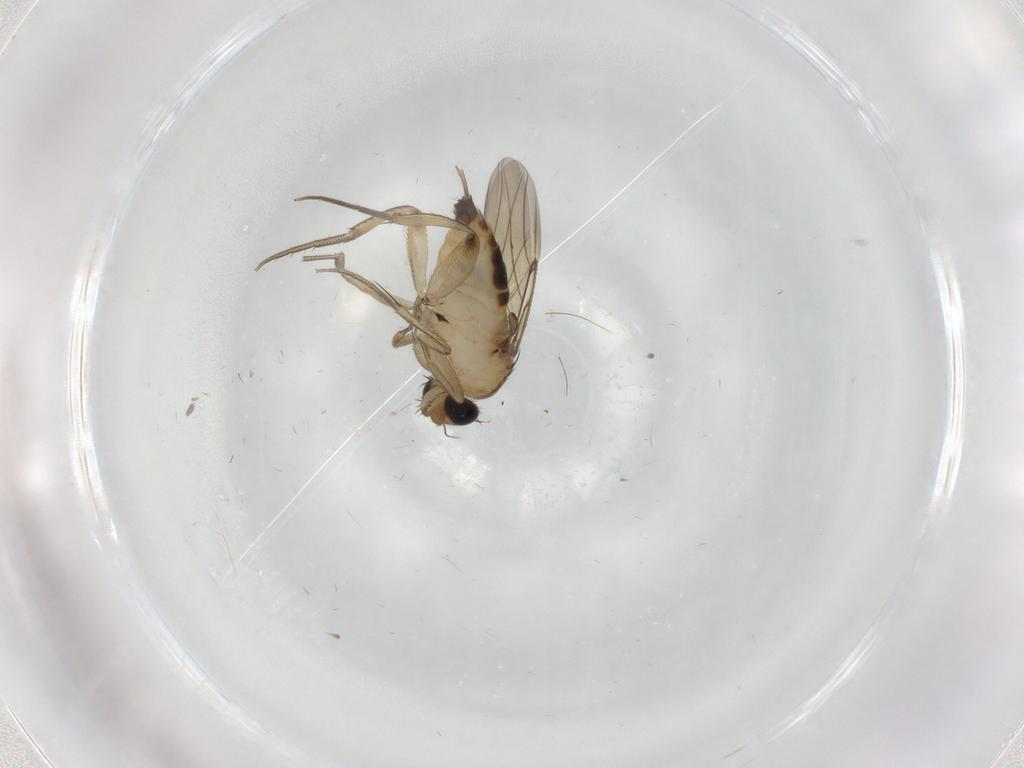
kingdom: Animalia
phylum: Arthropoda
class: Insecta
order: Diptera
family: Phoridae
